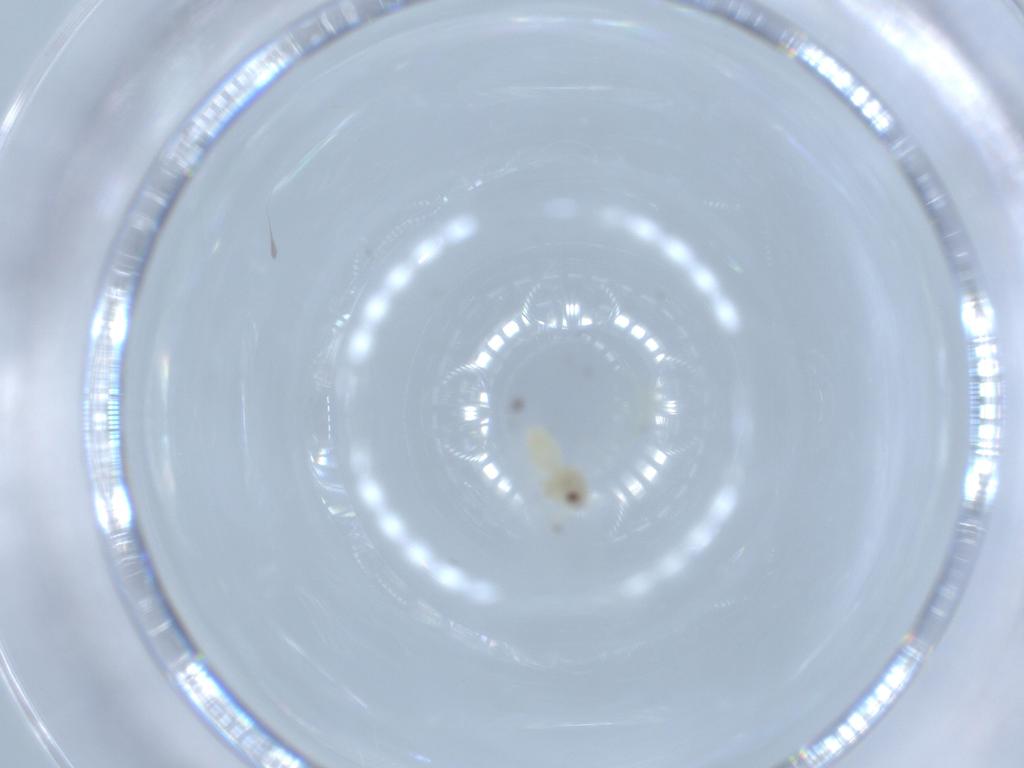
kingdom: Animalia
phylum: Arthropoda
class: Insecta
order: Hemiptera
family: Aleyrodidae
